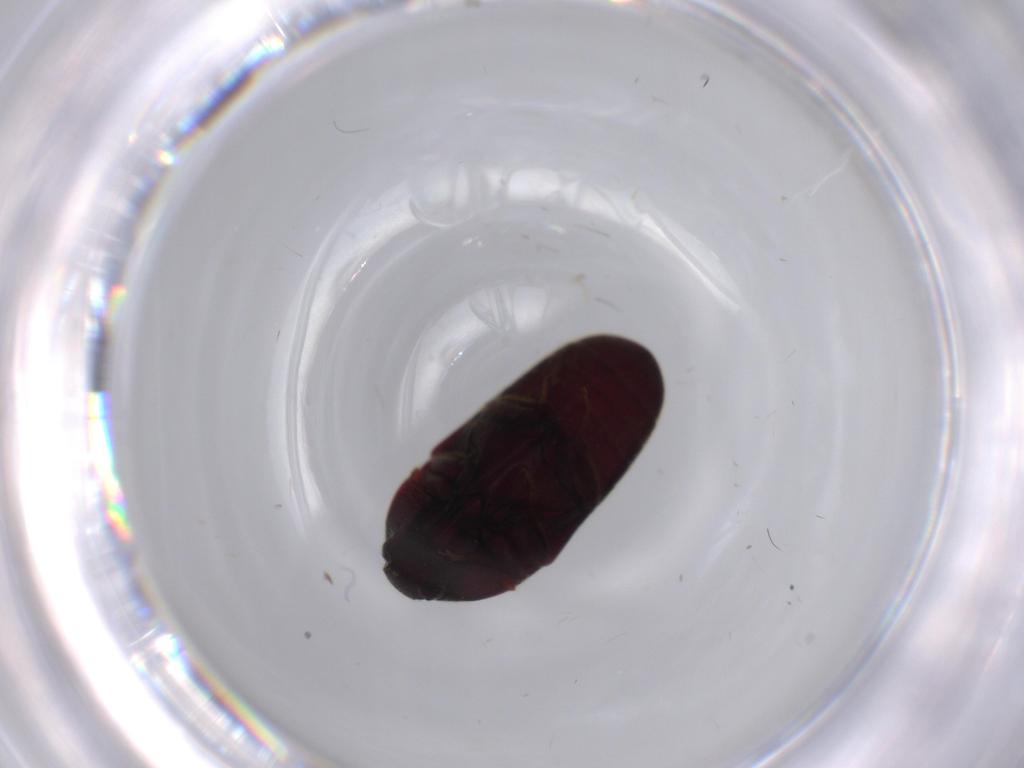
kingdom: Animalia
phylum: Arthropoda
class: Insecta
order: Coleoptera
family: Throscidae
